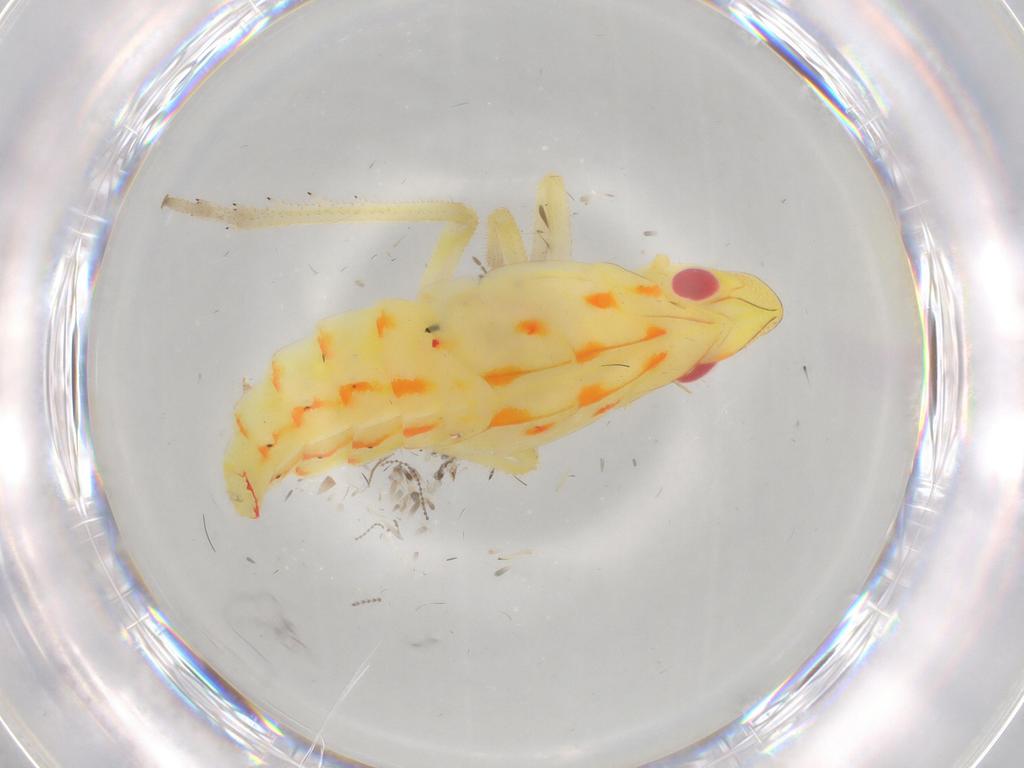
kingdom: Animalia
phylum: Arthropoda
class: Insecta
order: Hemiptera
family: Tropiduchidae
